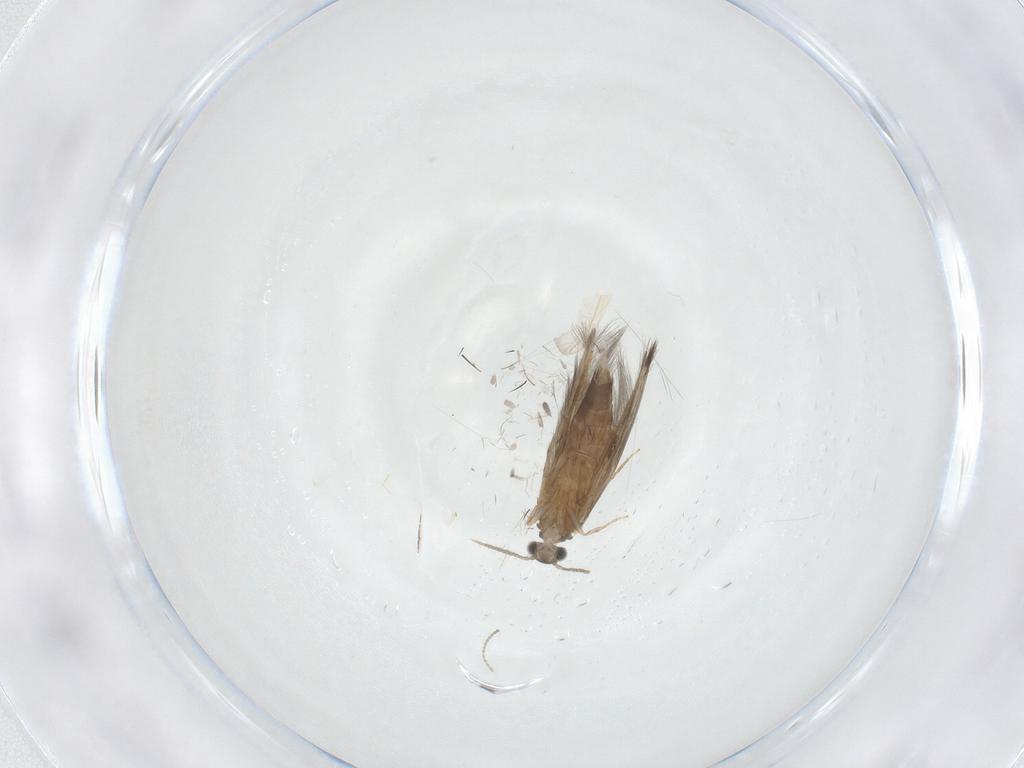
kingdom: Animalia
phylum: Arthropoda
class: Insecta
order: Trichoptera
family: Hydroptilidae
